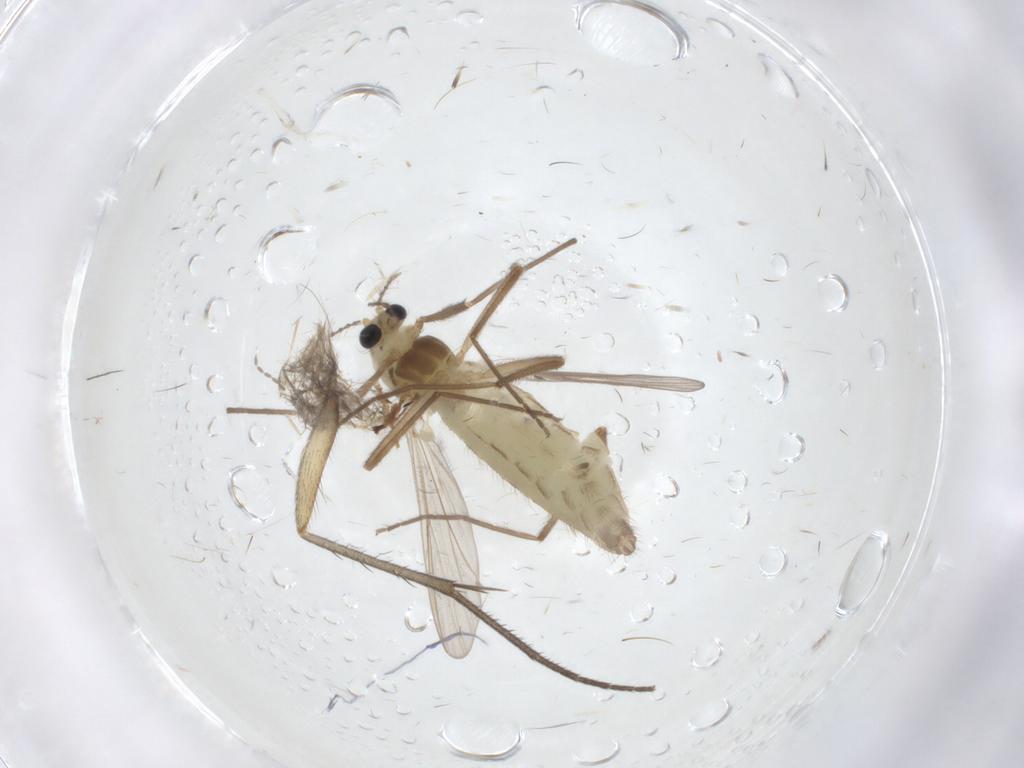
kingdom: Animalia
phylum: Arthropoda
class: Insecta
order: Diptera
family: Chironomidae
